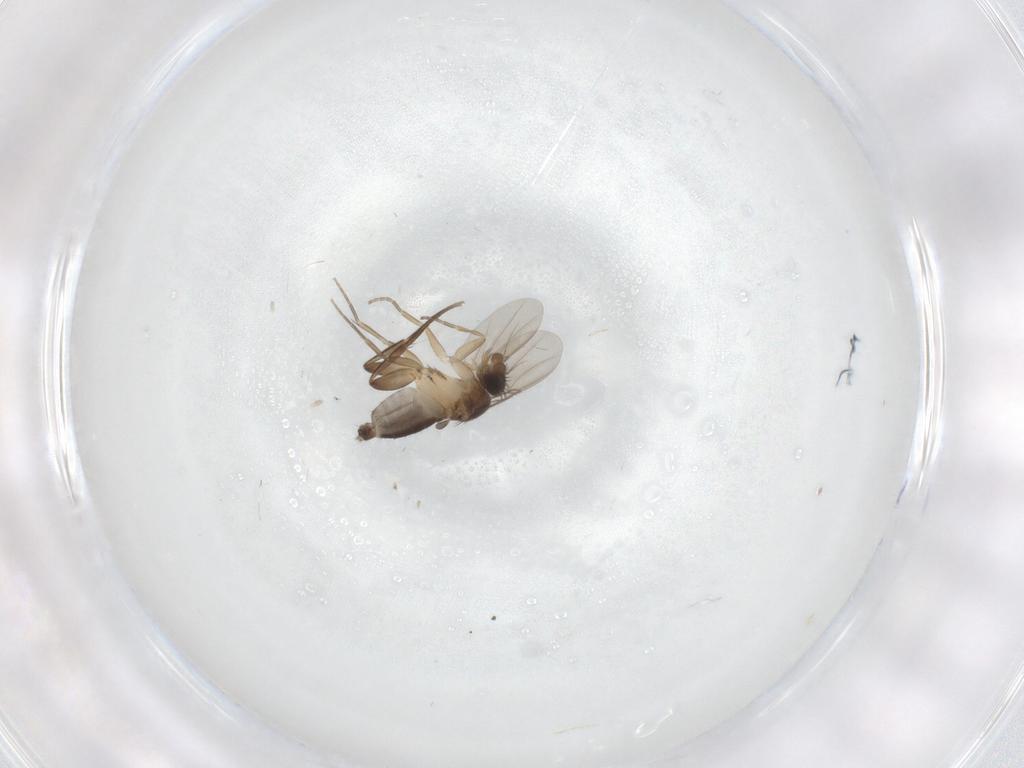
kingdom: Animalia
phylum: Arthropoda
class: Insecta
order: Diptera
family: Phoridae
